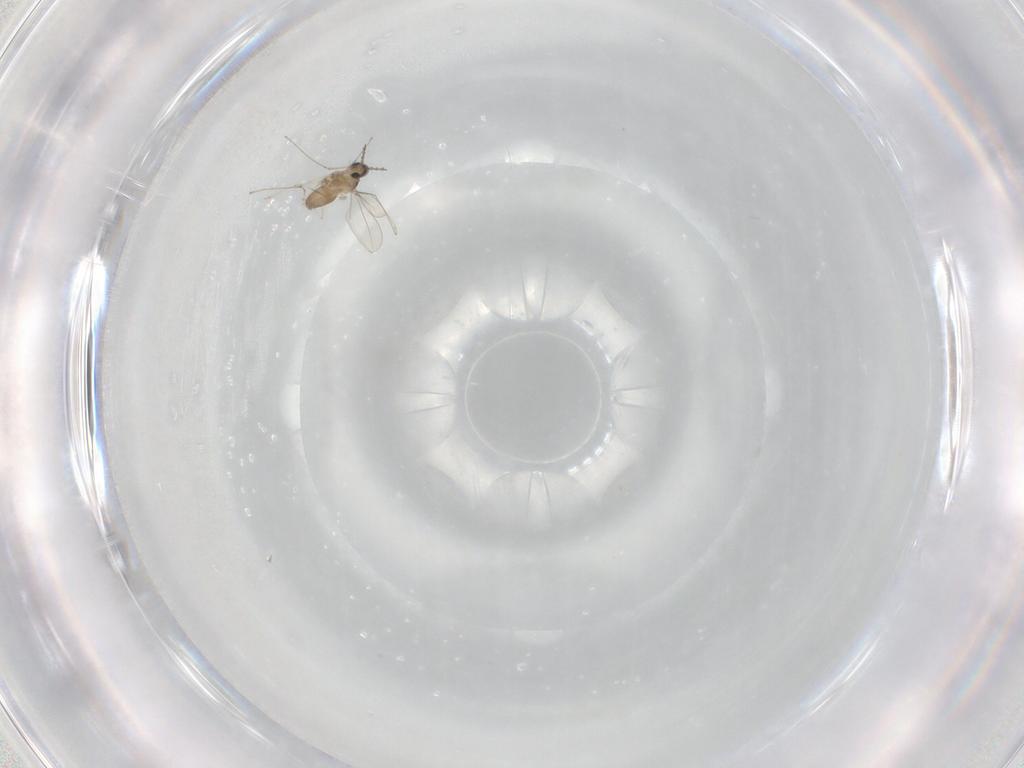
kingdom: Animalia
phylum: Arthropoda
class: Insecta
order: Diptera
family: Cecidomyiidae
